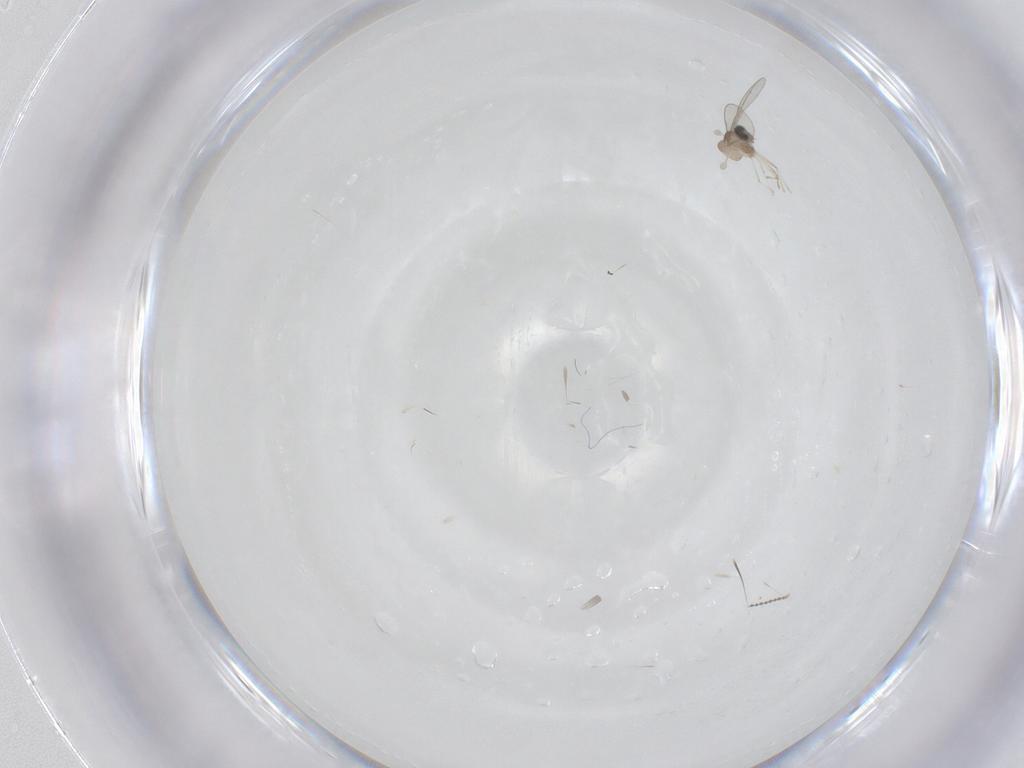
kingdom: Animalia
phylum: Arthropoda
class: Insecta
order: Diptera
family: Cecidomyiidae
